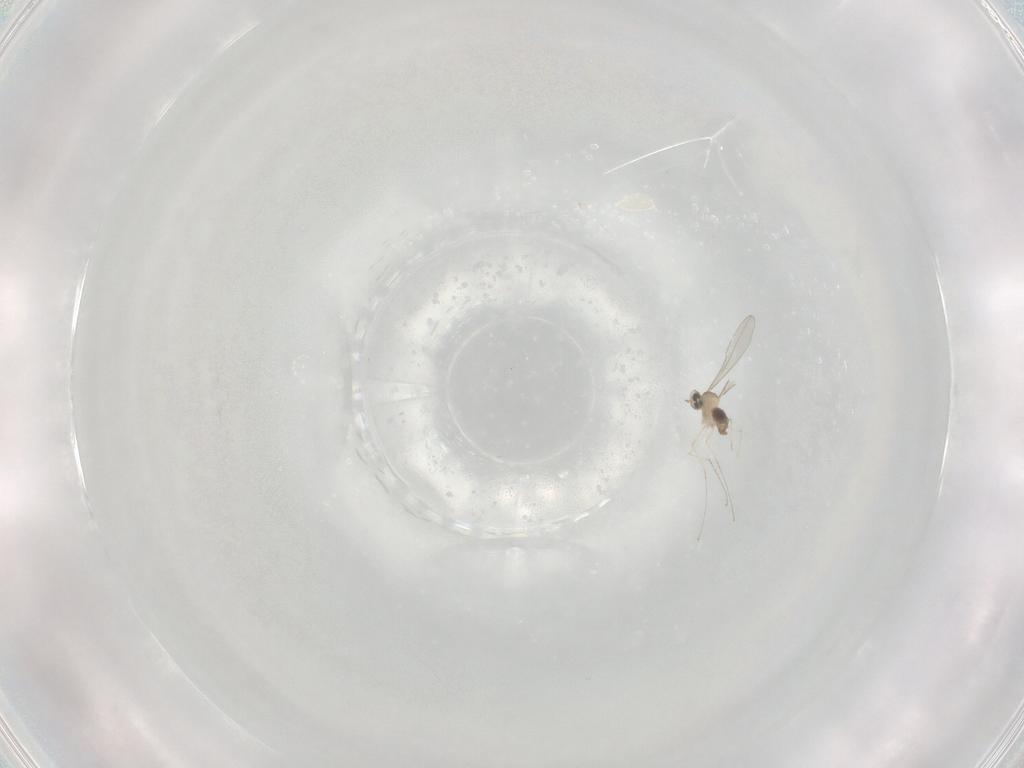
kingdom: Animalia
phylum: Arthropoda
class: Insecta
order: Diptera
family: Cecidomyiidae
